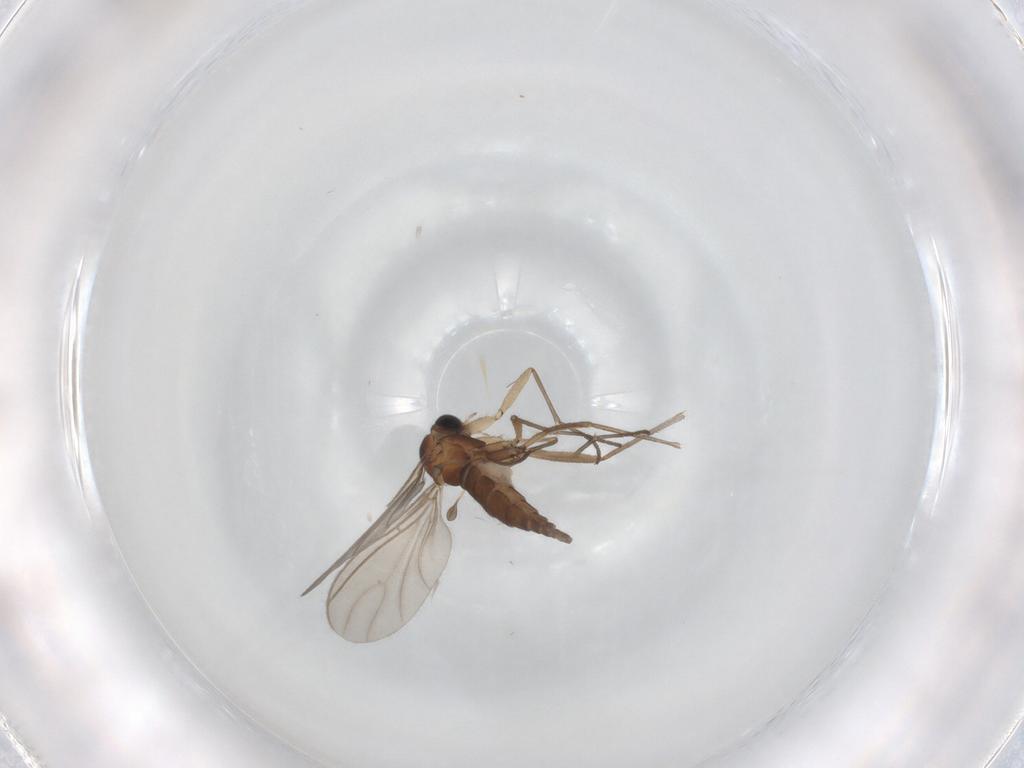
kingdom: Animalia
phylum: Arthropoda
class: Insecta
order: Diptera
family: Sciaridae
